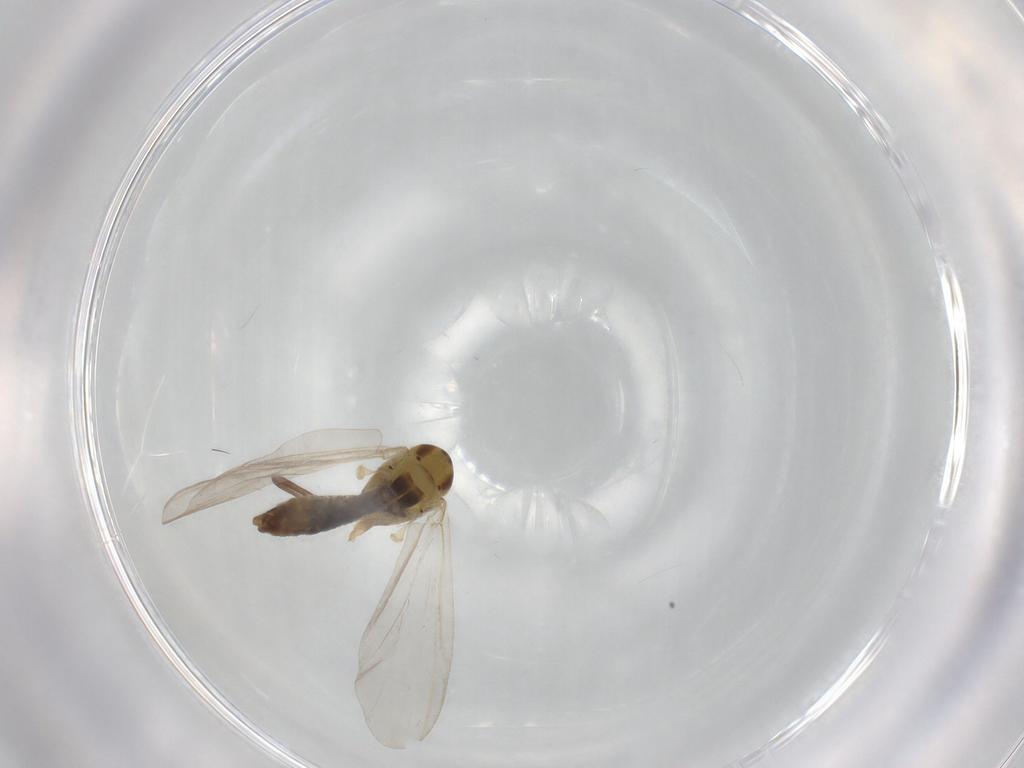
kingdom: Animalia
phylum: Arthropoda
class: Insecta
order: Diptera
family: Chironomidae
